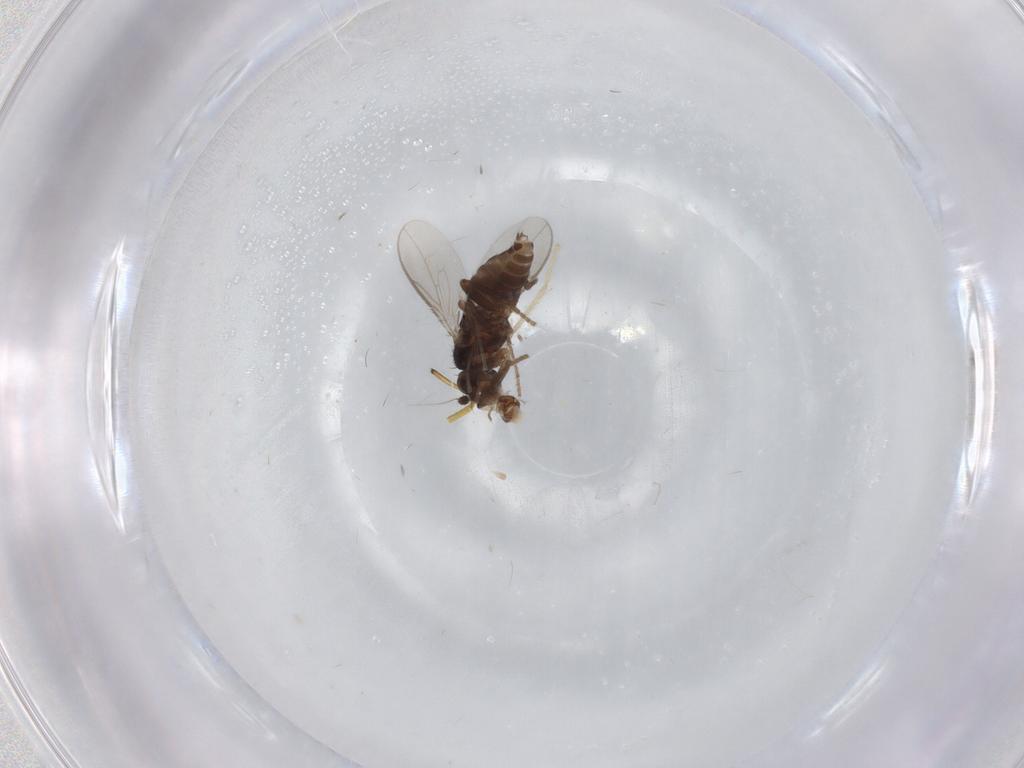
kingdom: Animalia
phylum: Arthropoda
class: Insecta
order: Diptera
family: Chironomidae
